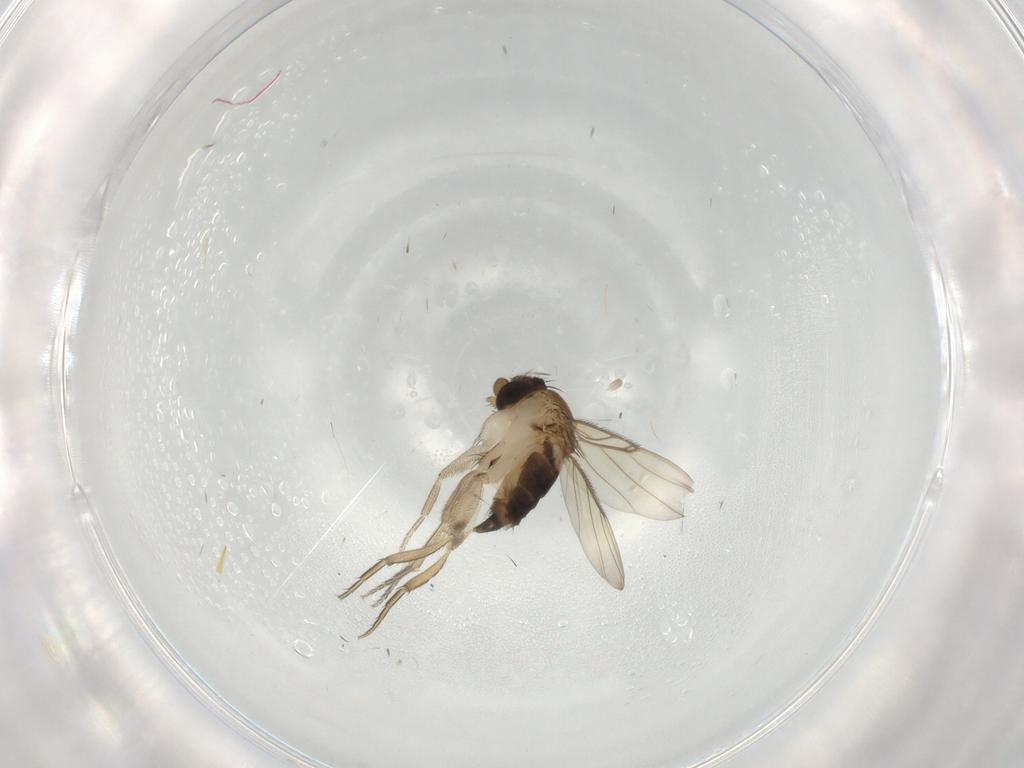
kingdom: Animalia
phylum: Arthropoda
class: Insecta
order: Diptera
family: Phoridae
